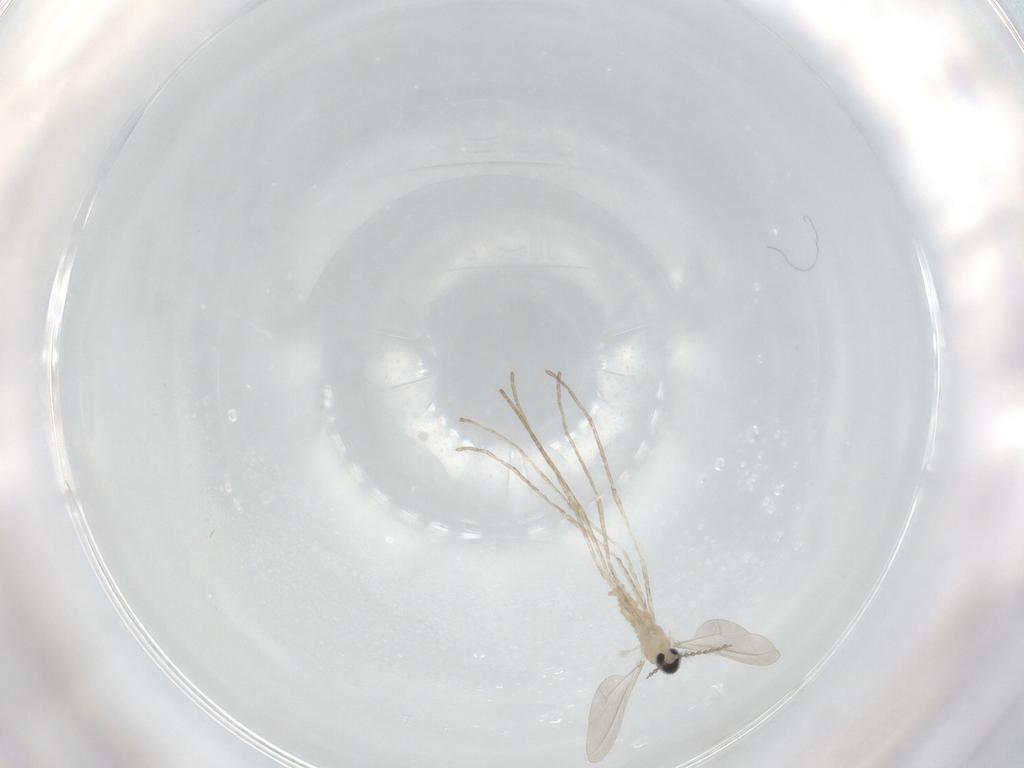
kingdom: Animalia
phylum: Arthropoda
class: Insecta
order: Diptera
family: Cecidomyiidae
